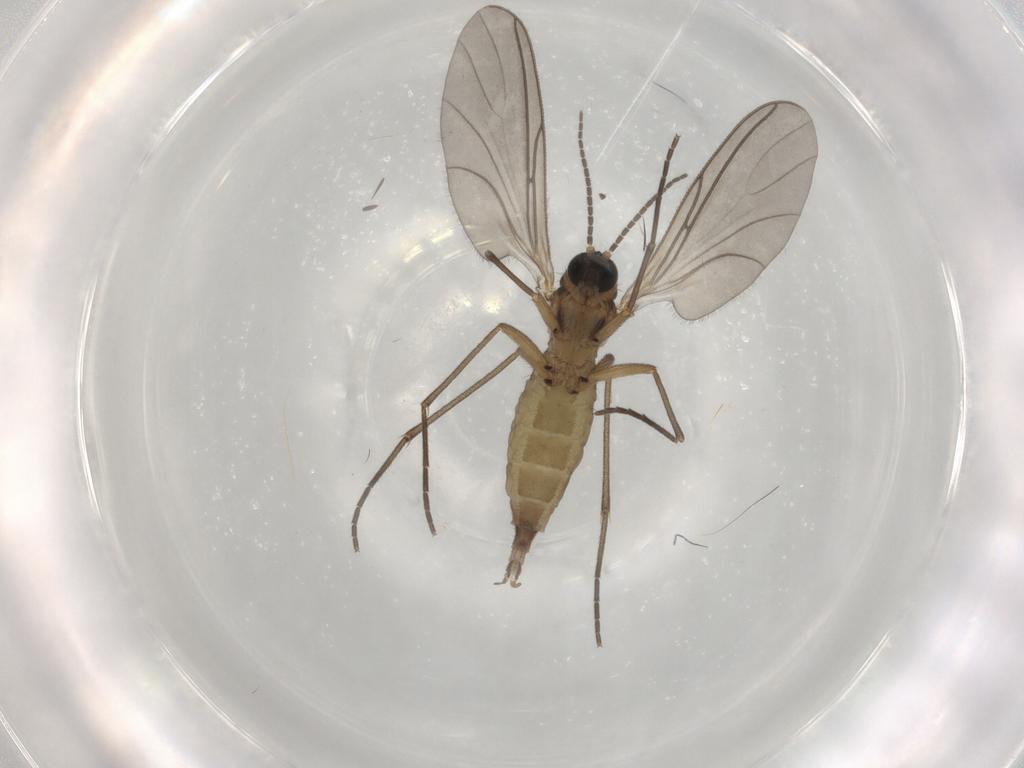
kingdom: Animalia
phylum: Arthropoda
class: Insecta
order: Diptera
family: Sciaridae
